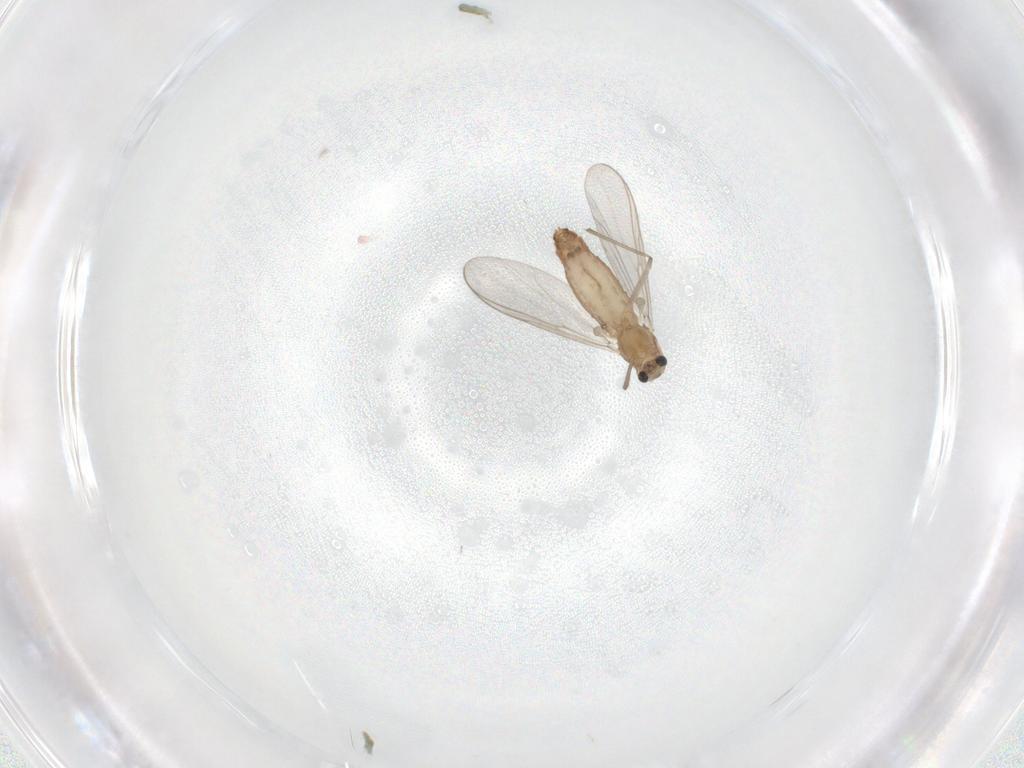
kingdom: Animalia
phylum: Arthropoda
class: Insecta
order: Diptera
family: Chironomidae
